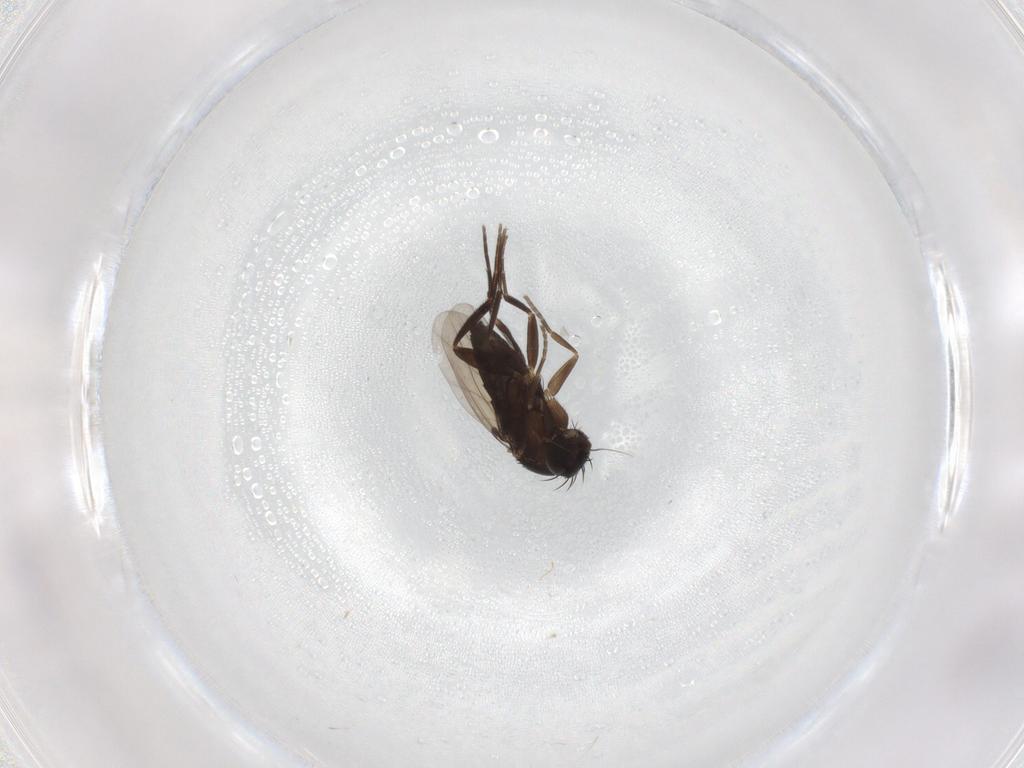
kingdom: Animalia
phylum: Arthropoda
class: Insecta
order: Diptera
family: Phoridae
